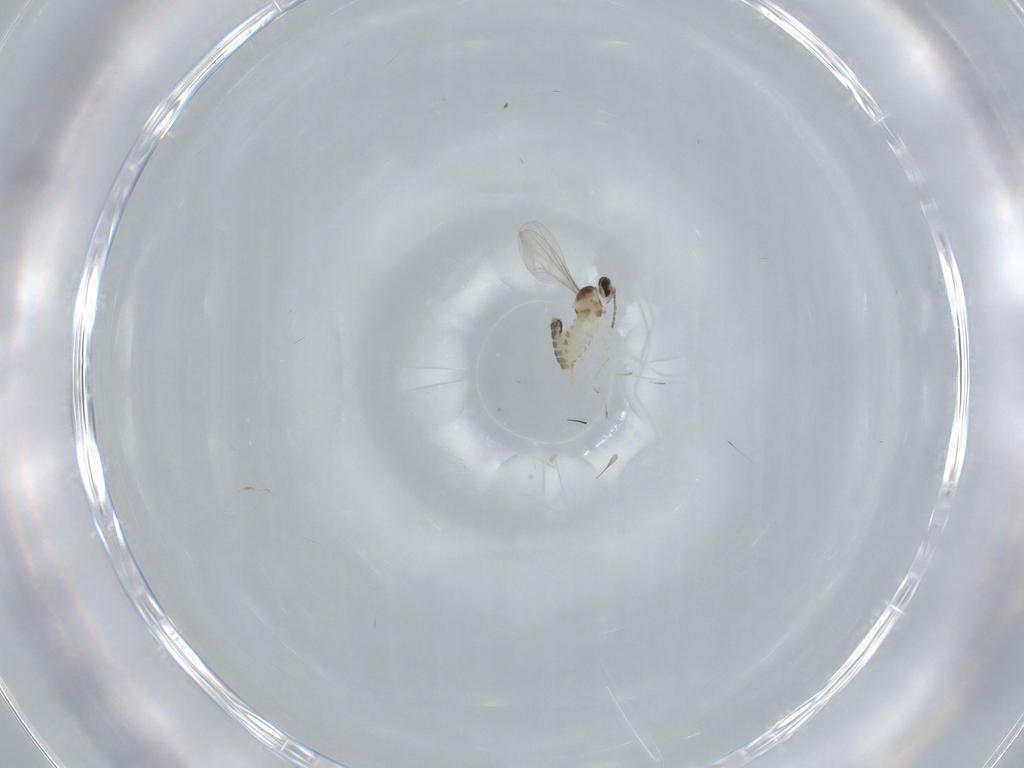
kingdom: Animalia
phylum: Arthropoda
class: Insecta
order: Diptera
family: Cecidomyiidae
